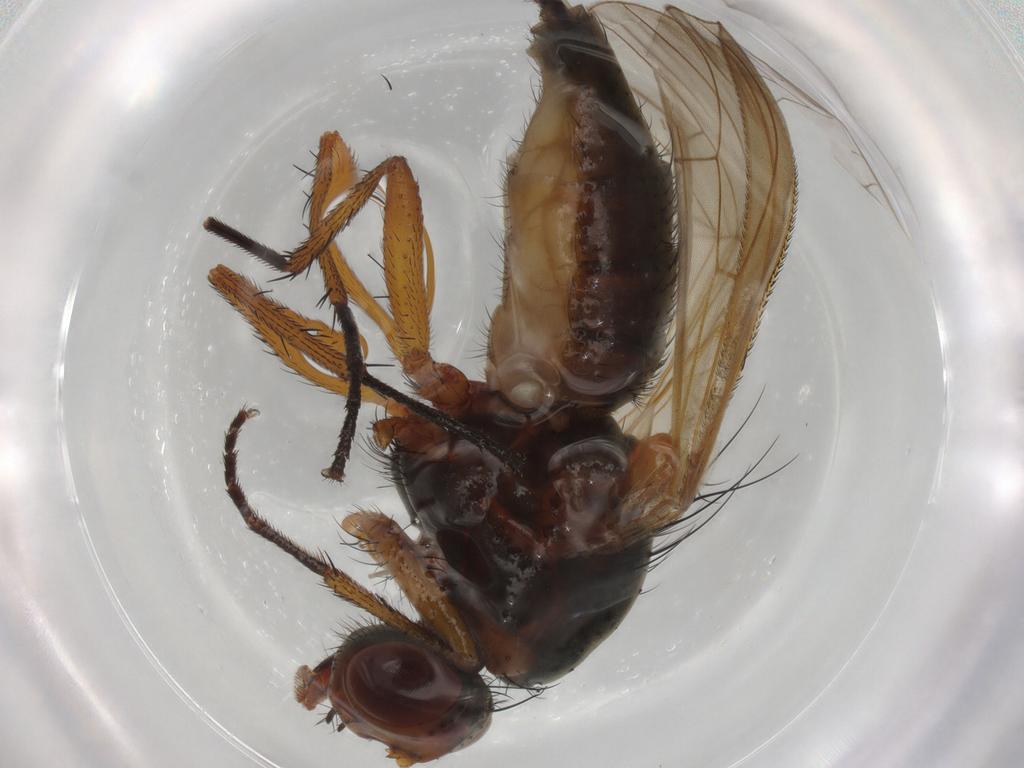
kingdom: Animalia
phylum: Arthropoda
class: Insecta
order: Diptera
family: Anthomyiidae
